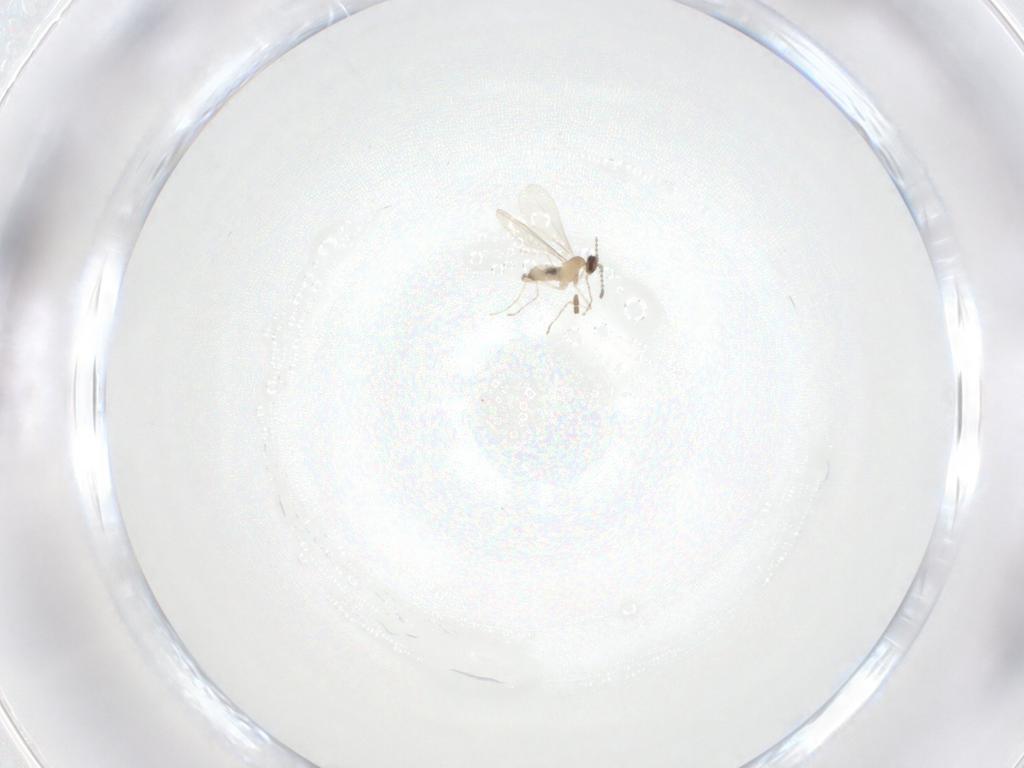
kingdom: Animalia
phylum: Arthropoda
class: Insecta
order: Diptera
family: Cecidomyiidae
